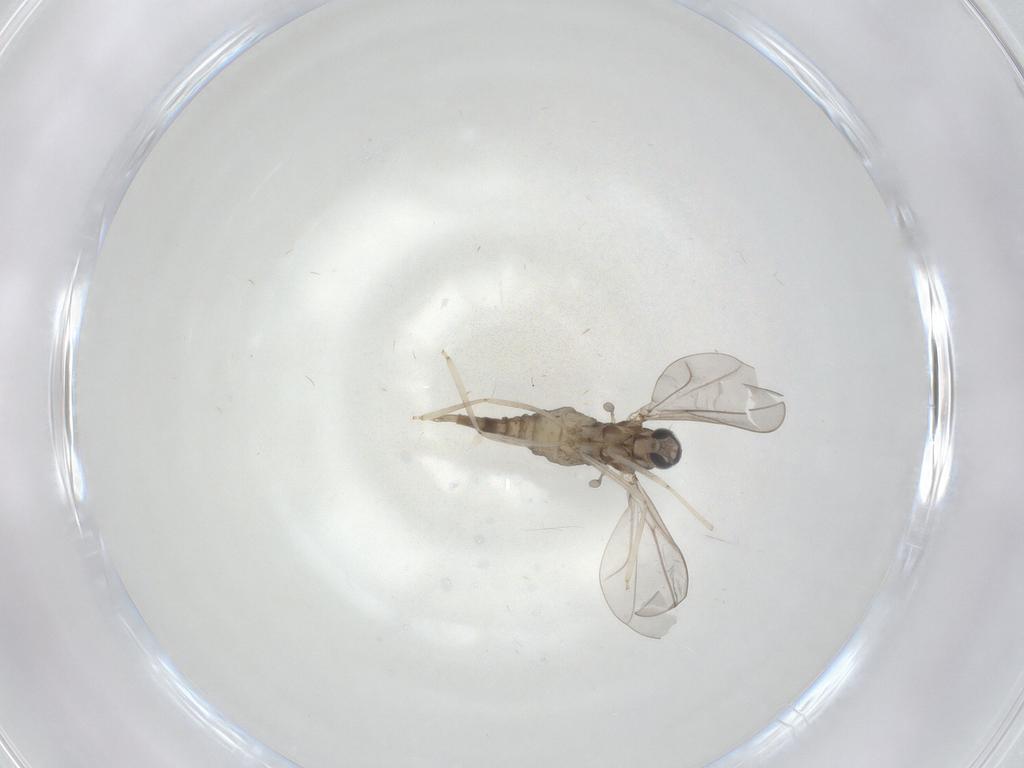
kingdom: Animalia
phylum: Arthropoda
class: Insecta
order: Diptera
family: Cecidomyiidae
